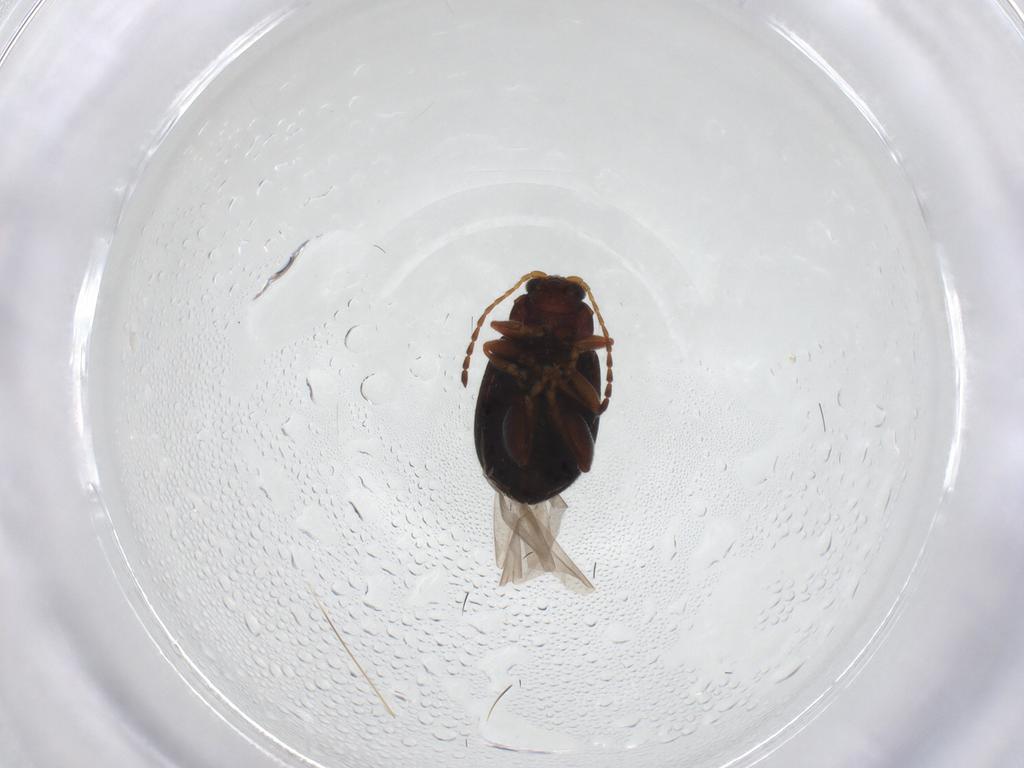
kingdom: Animalia
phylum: Arthropoda
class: Insecta
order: Coleoptera
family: Chrysomelidae
